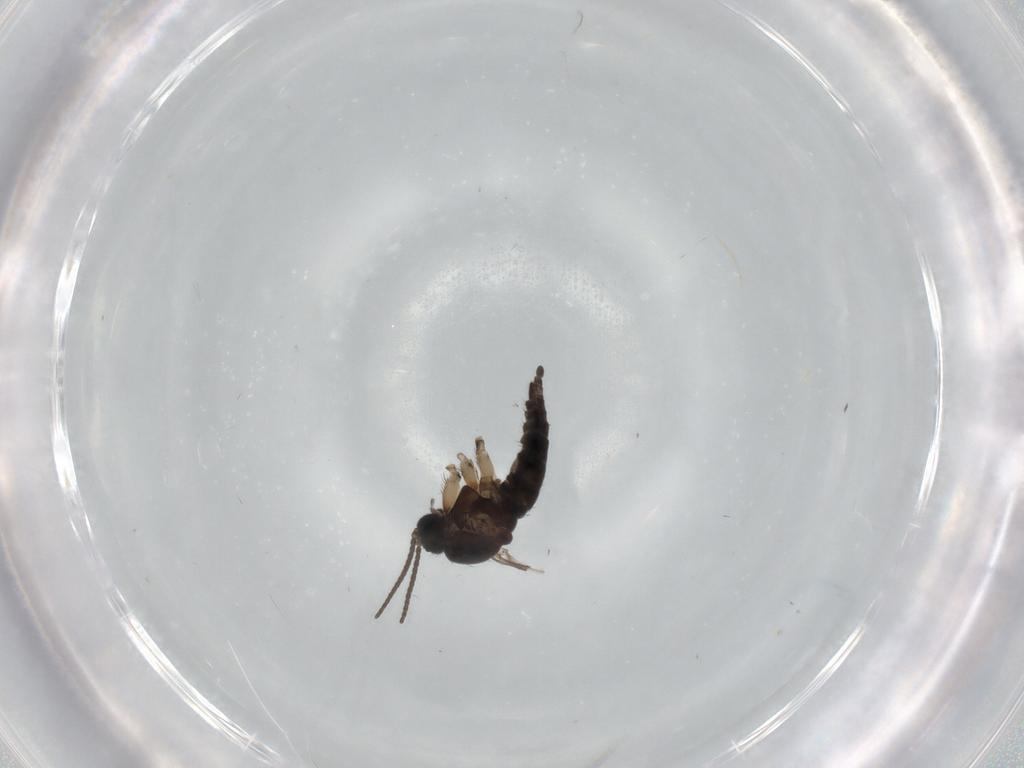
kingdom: Animalia
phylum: Arthropoda
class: Insecta
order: Diptera
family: Sciaridae
